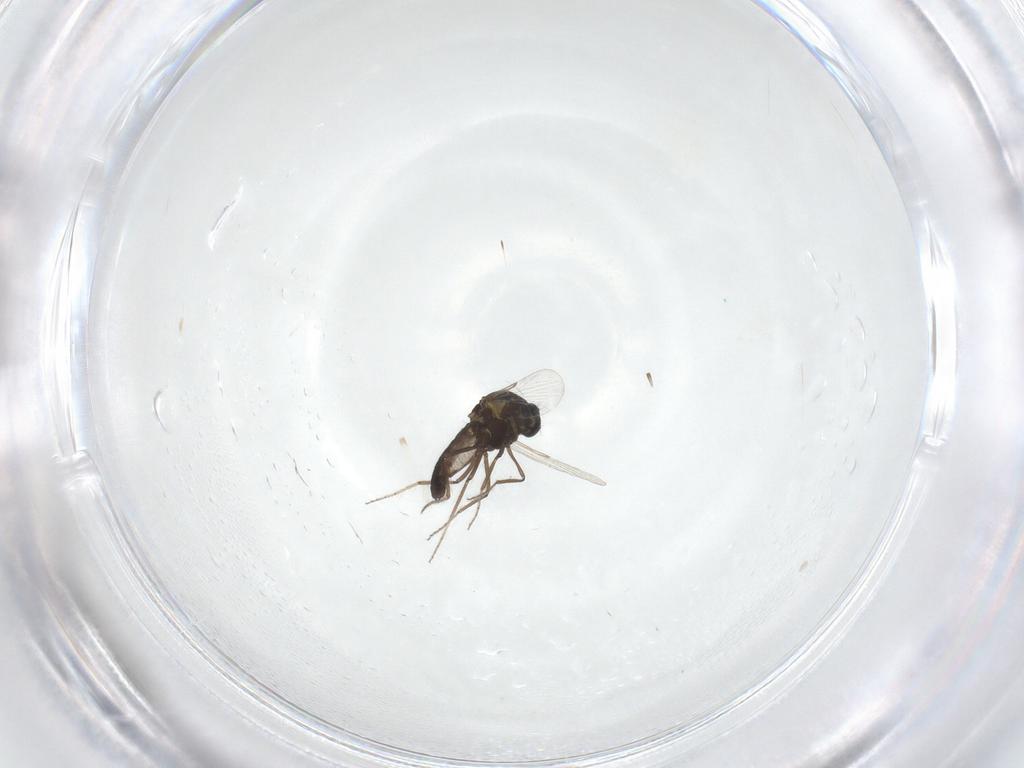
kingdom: Animalia
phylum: Arthropoda
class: Insecta
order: Diptera
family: Ceratopogonidae
